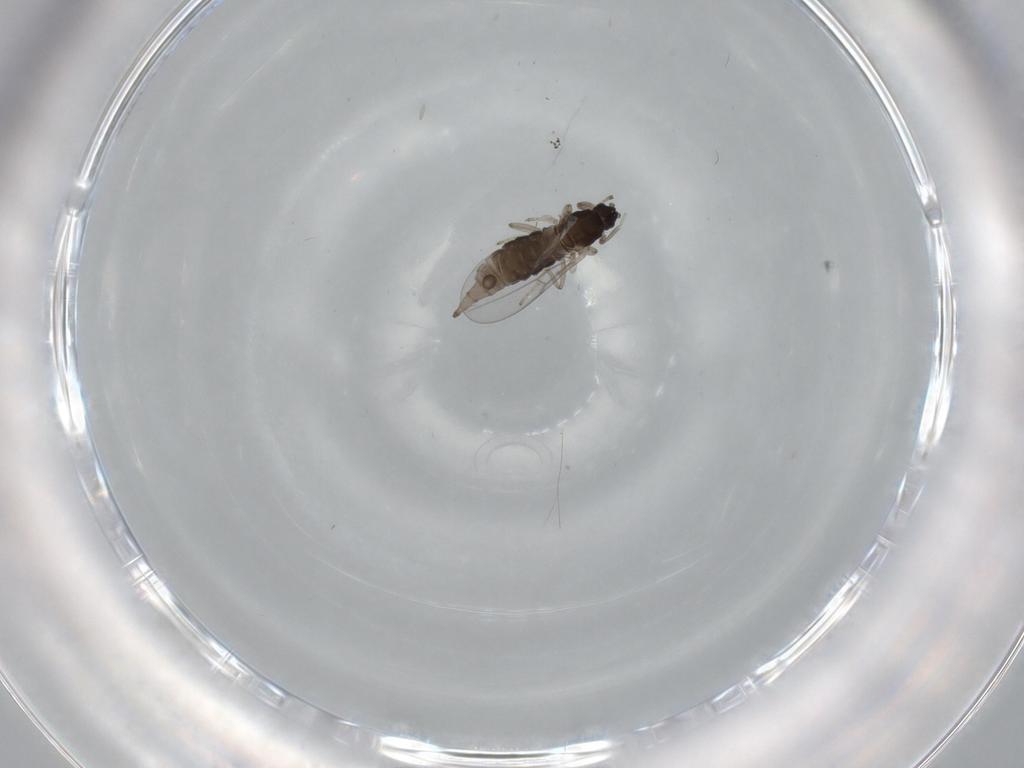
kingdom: Animalia
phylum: Arthropoda
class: Insecta
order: Diptera
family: Cecidomyiidae
